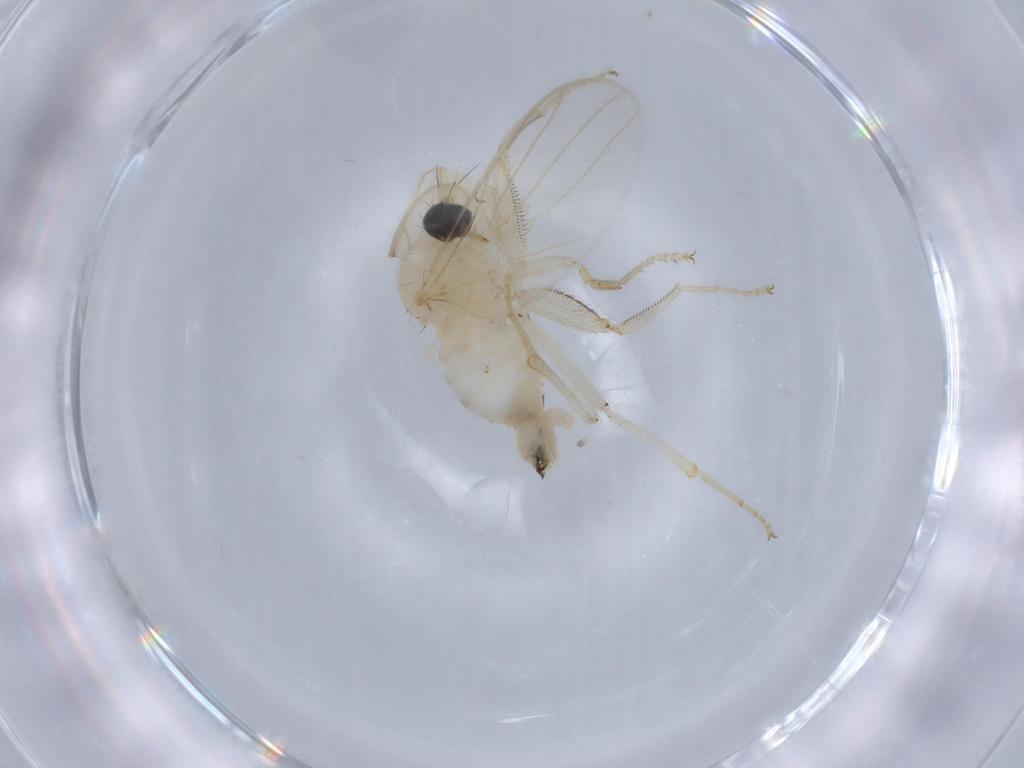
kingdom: Animalia
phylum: Arthropoda
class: Insecta
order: Diptera
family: Hybotidae
